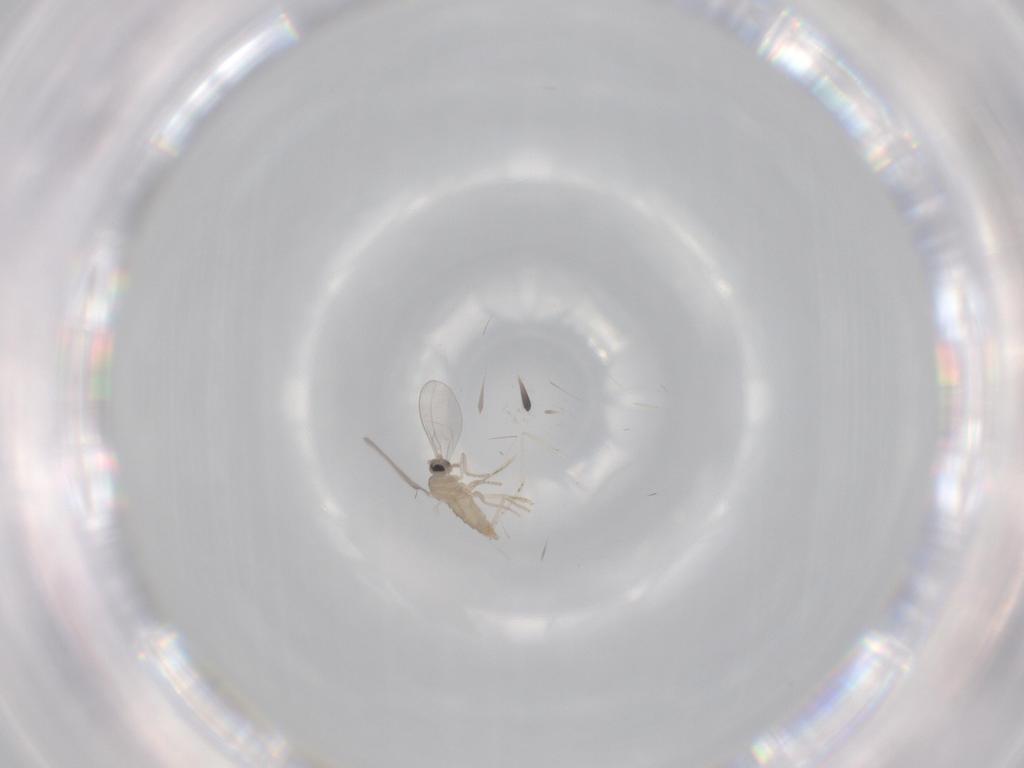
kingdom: Animalia
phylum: Arthropoda
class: Insecta
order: Diptera
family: Cecidomyiidae
